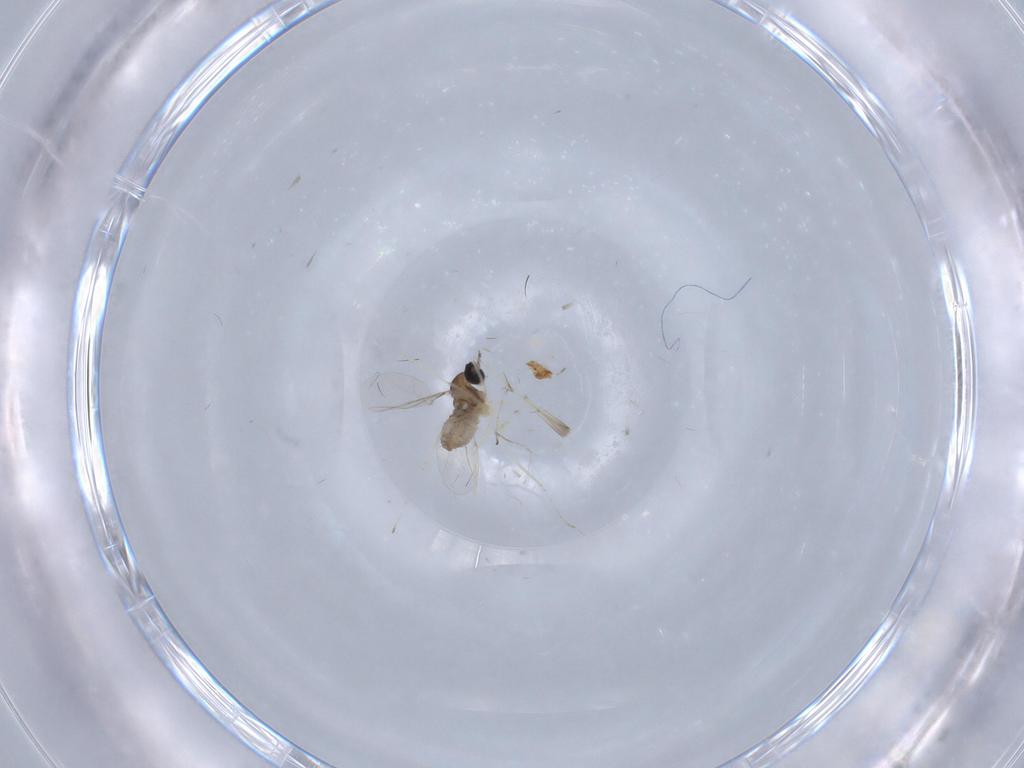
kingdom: Animalia
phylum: Arthropoda
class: Insecta
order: Diptera
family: Cecidomyiidae
